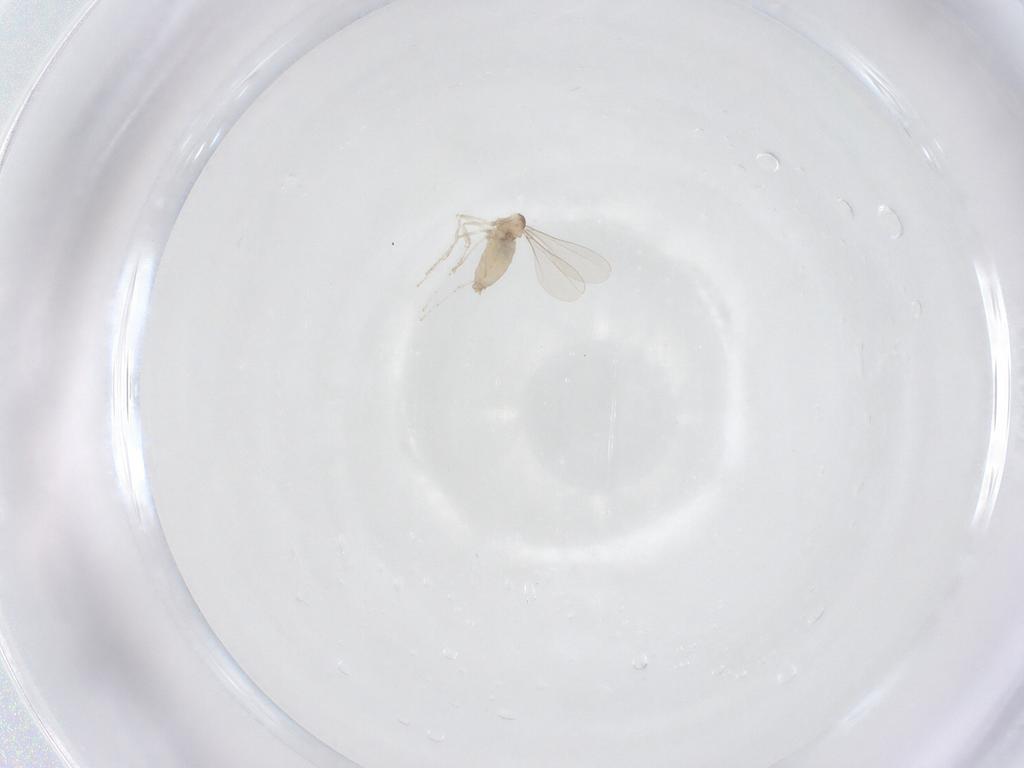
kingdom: Animalia
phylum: Arthropoda
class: Insecta
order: Diptera
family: Cecidomyiidae
